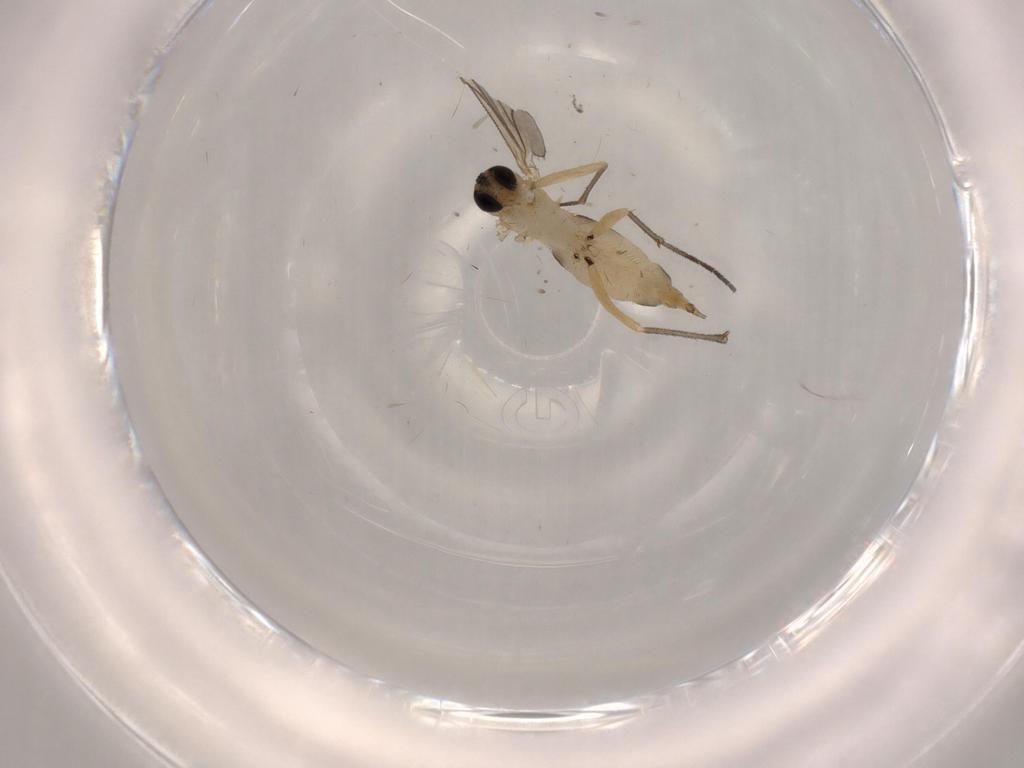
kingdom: Animalia
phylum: Arthropoda
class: Insecta
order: Diptera
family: Sciaridae
